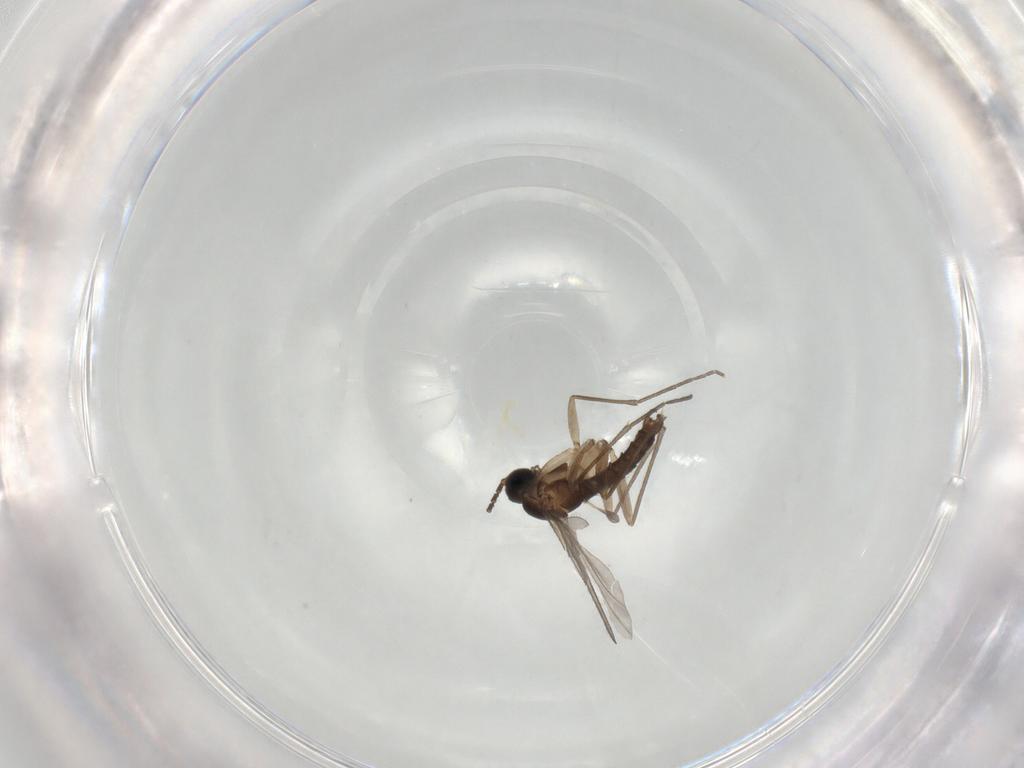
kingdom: Animalia
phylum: Arthropoda
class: Insecta
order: Diptera
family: Sciaridae
